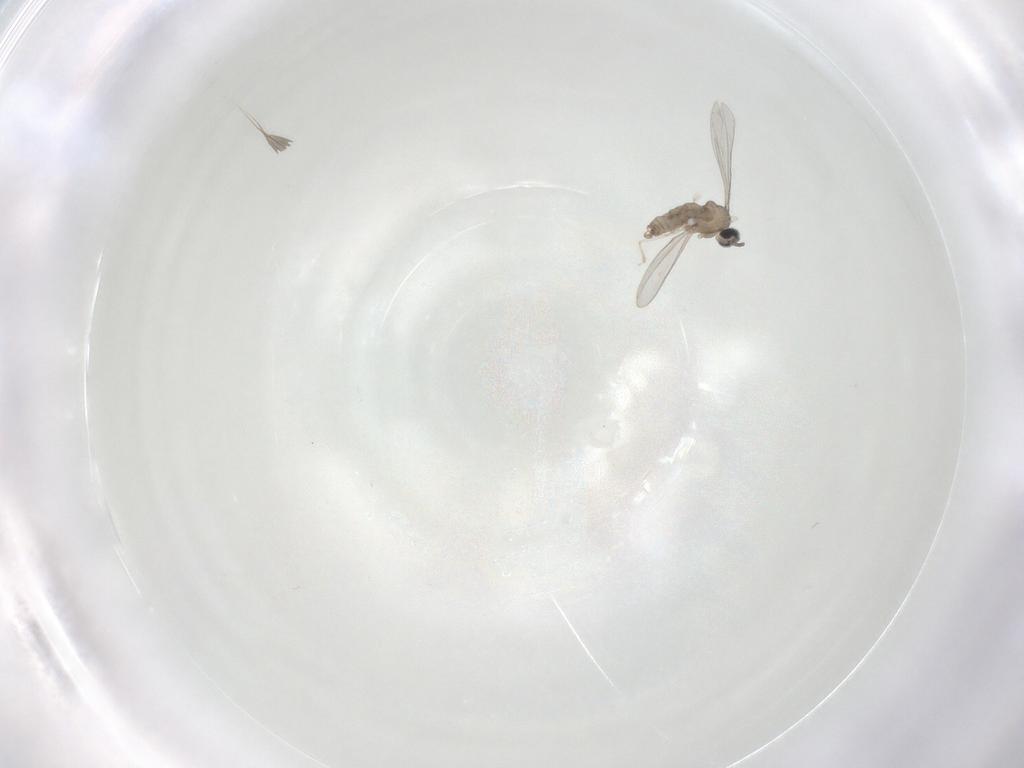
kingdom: Animalia
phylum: Arthropoda
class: Insecta
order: Diptera
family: Hybotidae
